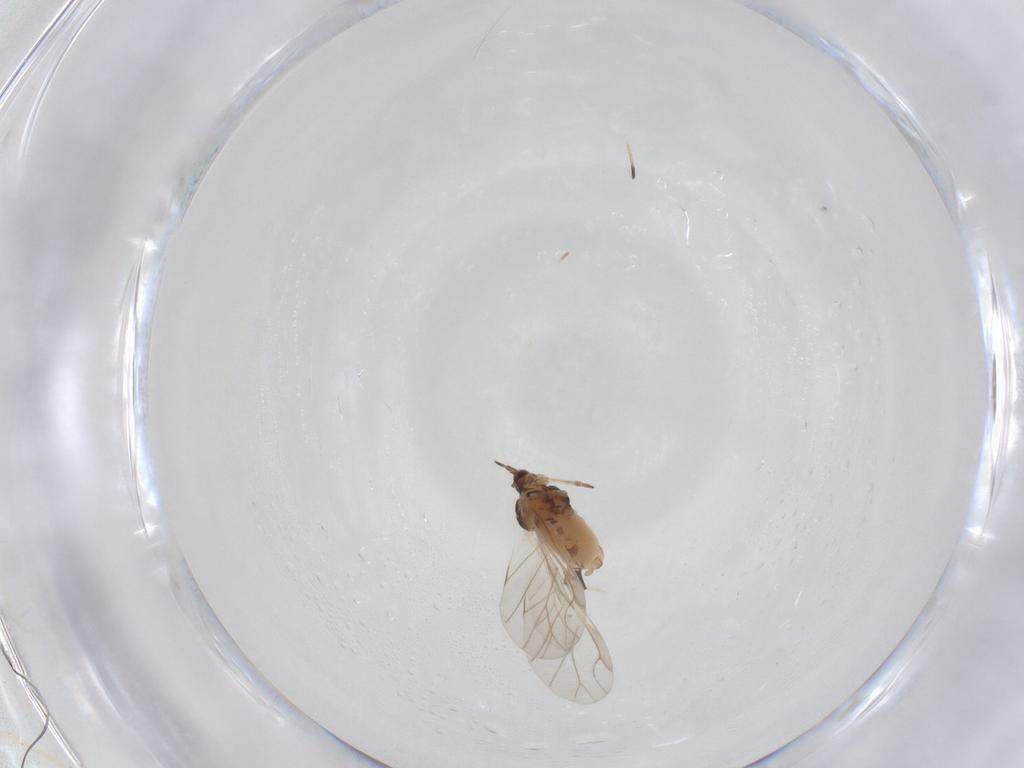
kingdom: Animalia
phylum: Arthropoda
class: Insecta
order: Hemiptera
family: Aphididae
